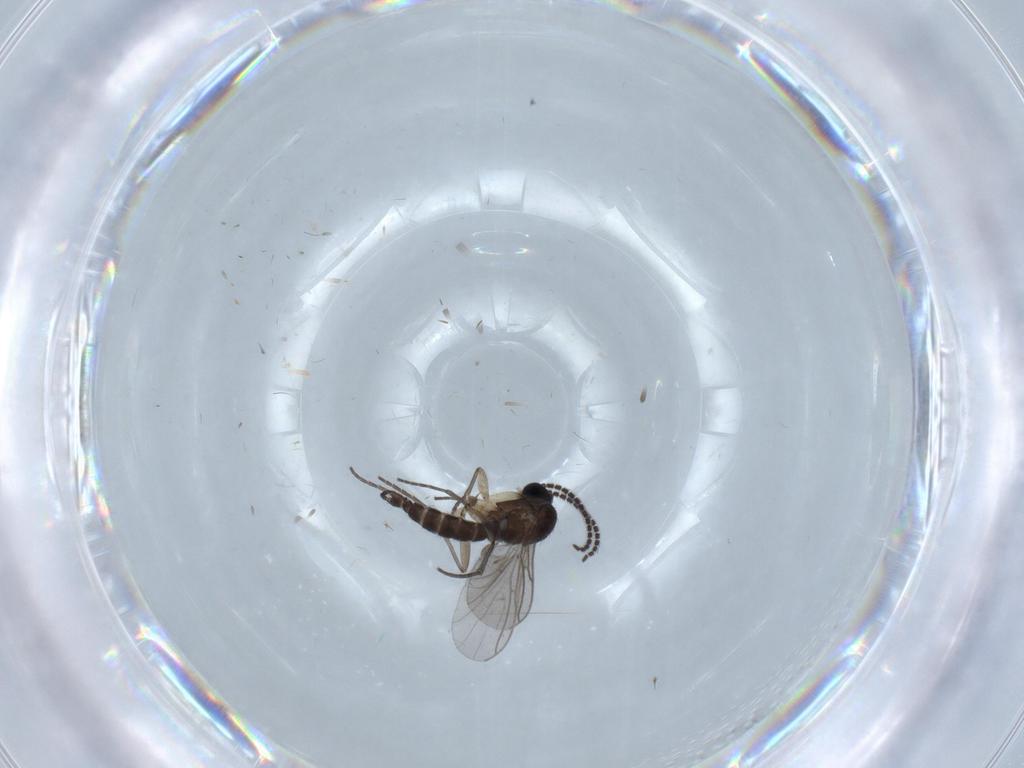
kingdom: Animalia
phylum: Arthropoda
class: Insecta
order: Diptera
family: Sciaridae
